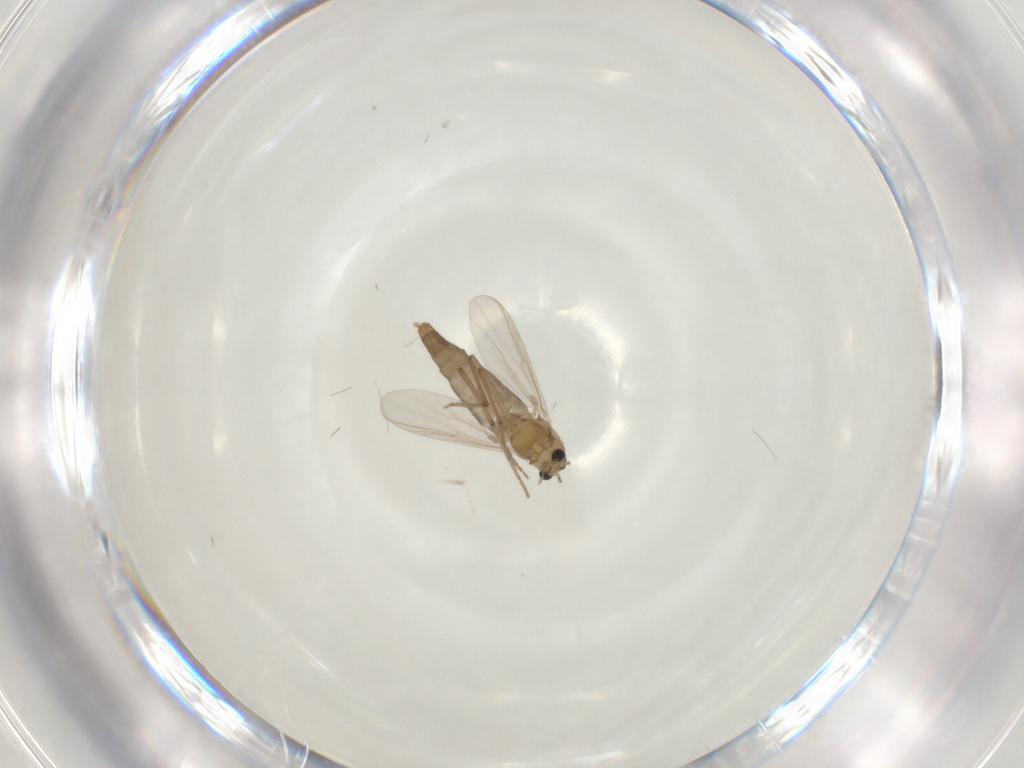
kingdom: Animalia
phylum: Arthropoda
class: Insecta
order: Diptera
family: Chironomidae
